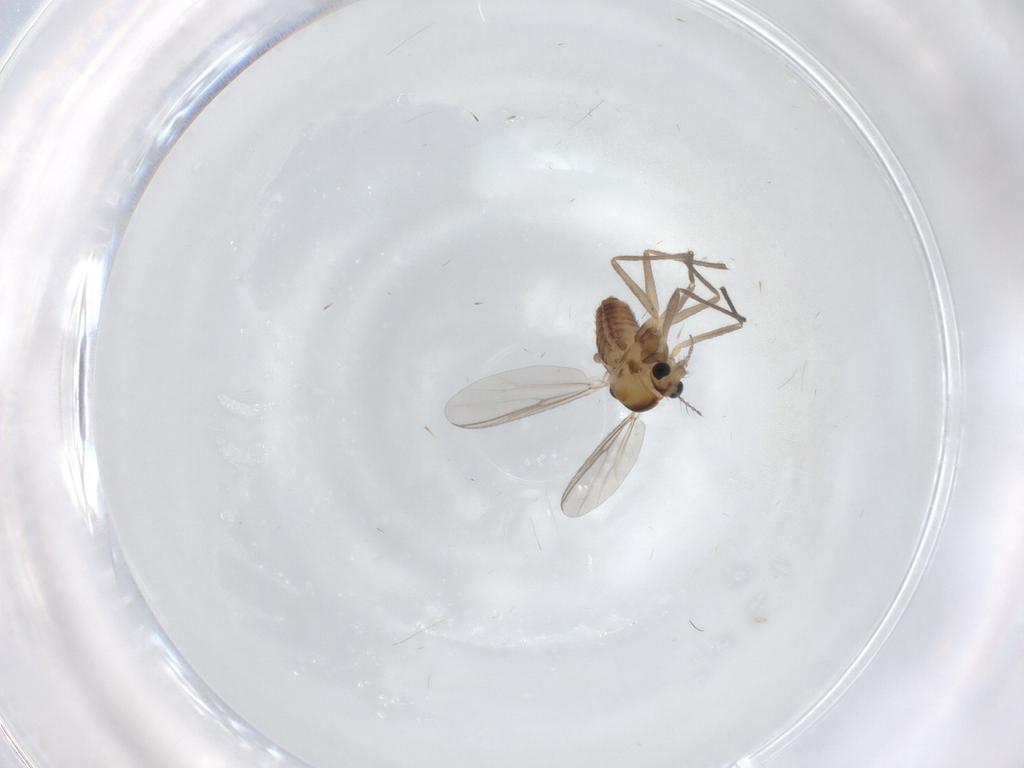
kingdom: Animalia
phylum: Arthropoda
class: Insecta
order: Diptera
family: Chironomidae
